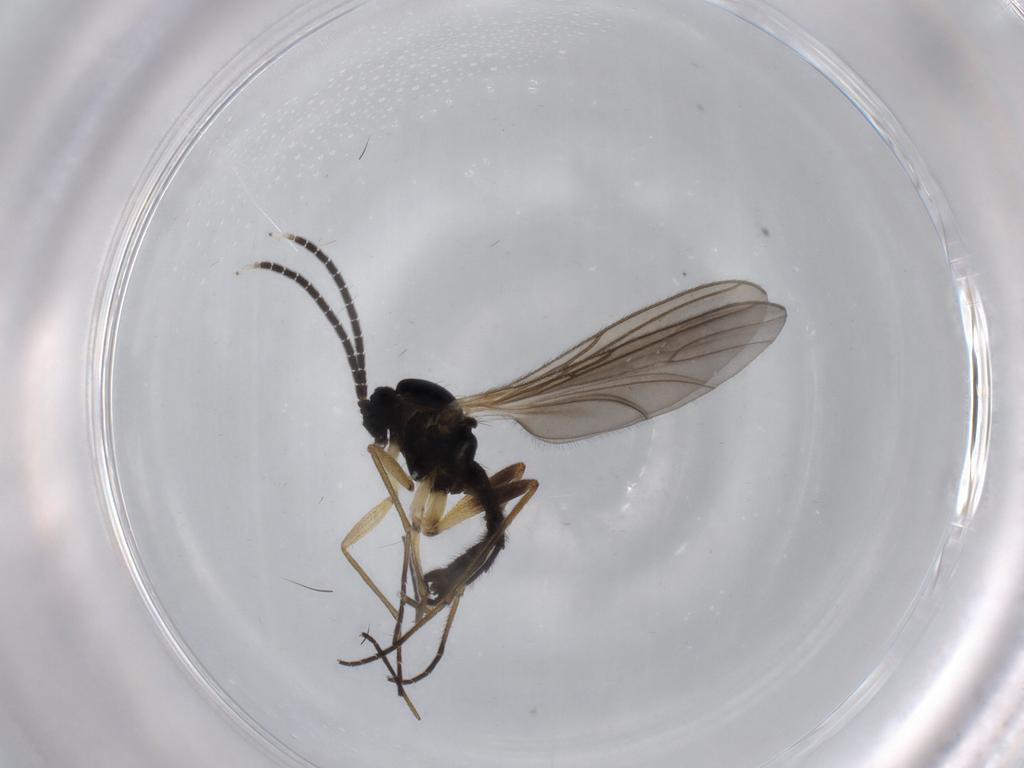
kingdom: Animalia
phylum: Arthropoda
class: Insecta
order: Diptera
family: Sciaridae
